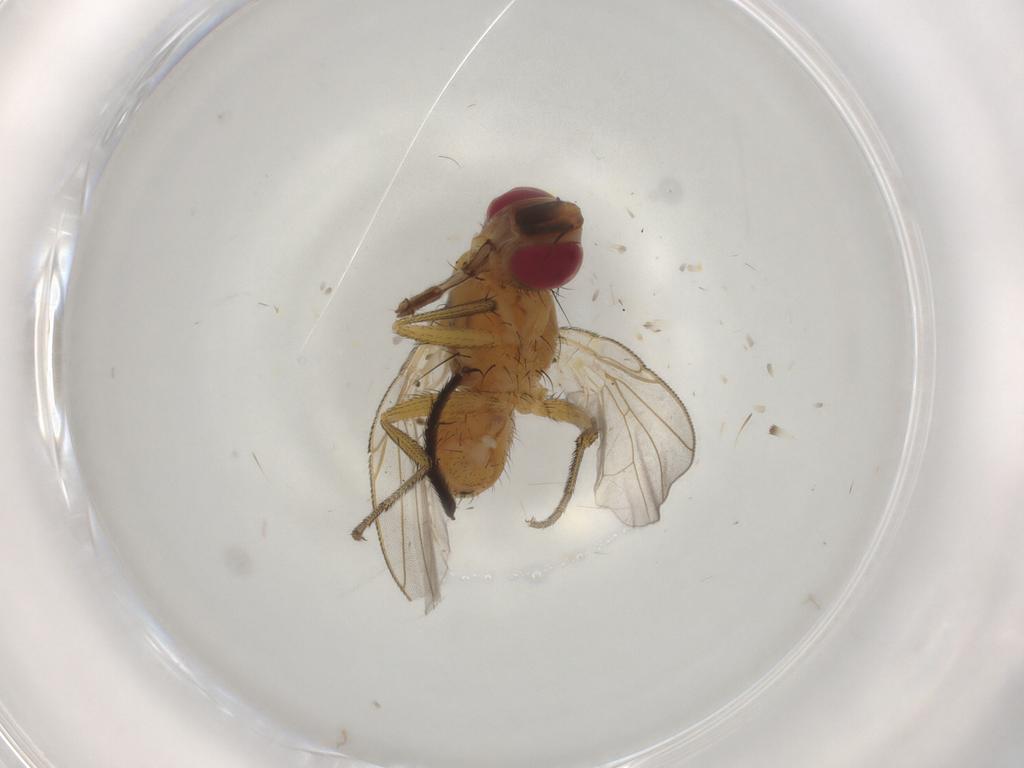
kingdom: Animalia
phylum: Arthropoda
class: Insecta
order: Diptera
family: Muscidae
